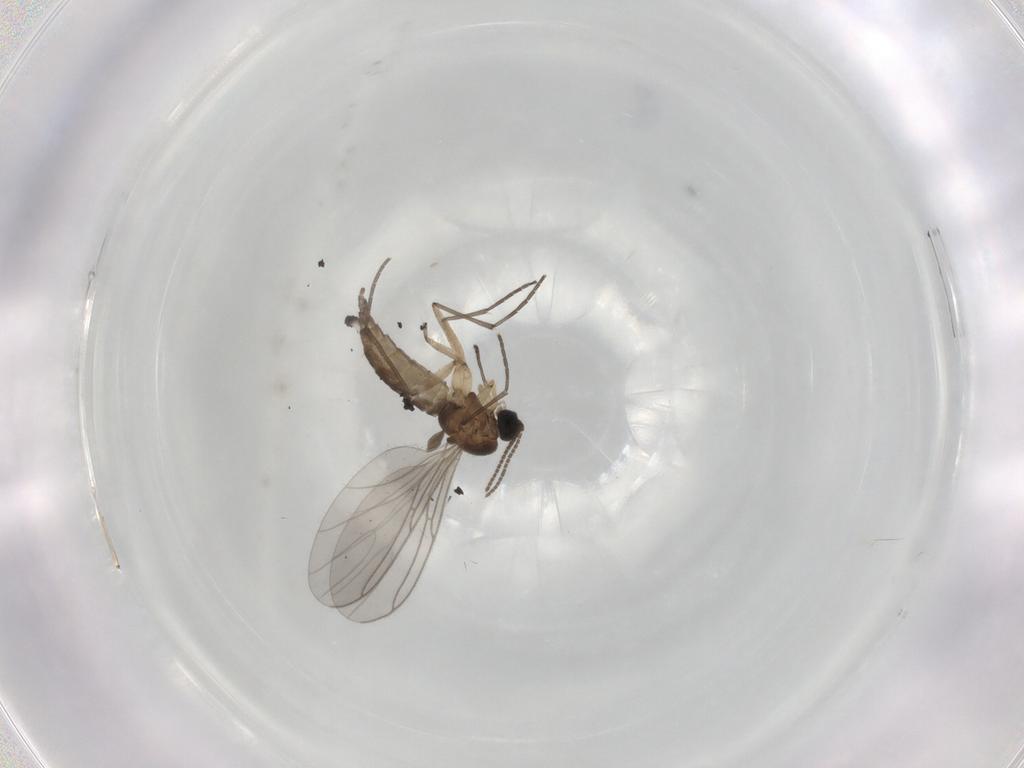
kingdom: Animalia
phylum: Arthropoda
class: Insecta
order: Diptera
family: Sciaridae
